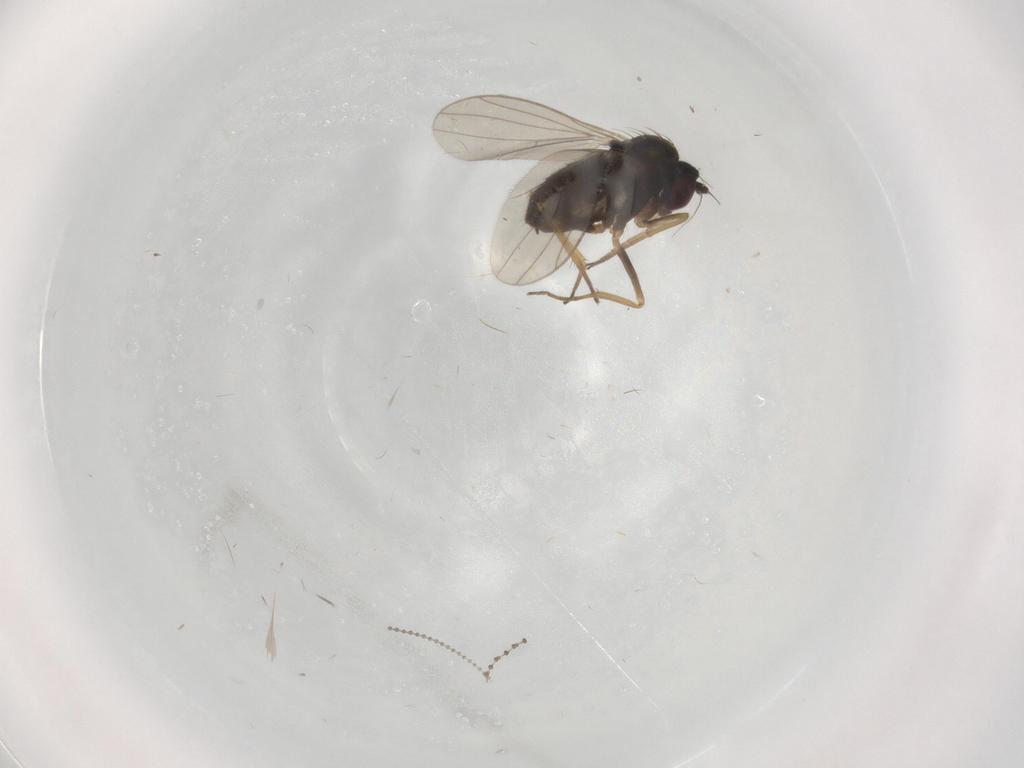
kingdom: Animalia
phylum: Arthropoda
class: Insecta
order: Diptera
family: Dolichopodidae
